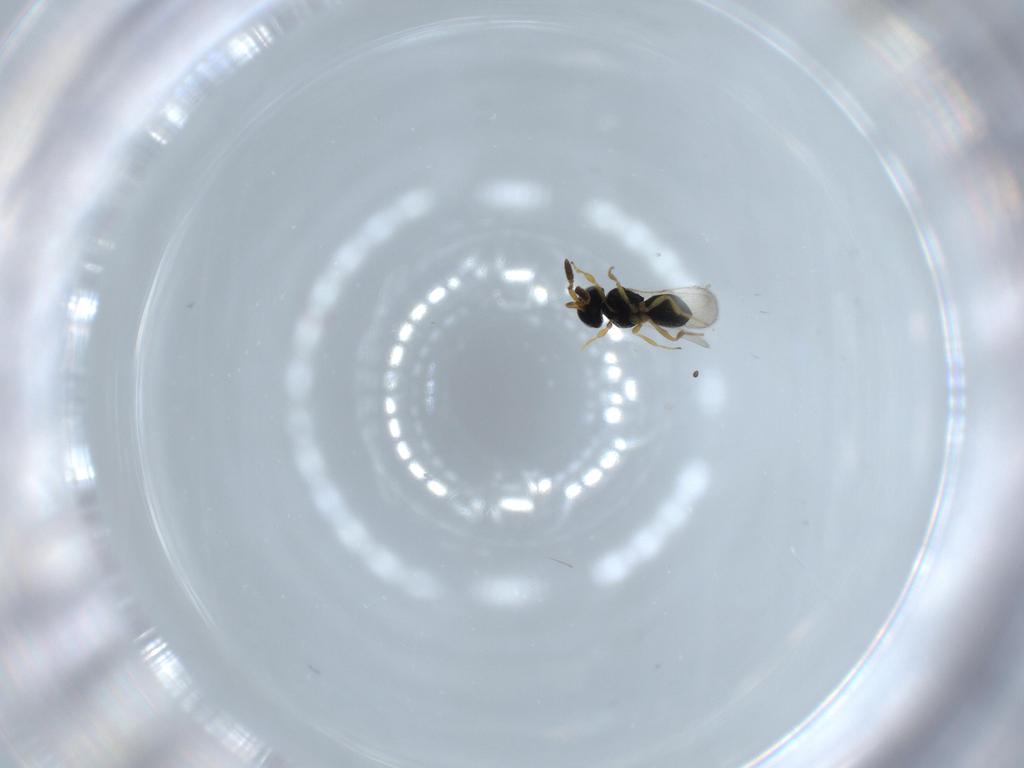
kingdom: Animalia
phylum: Arthropoda
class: Insecta
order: Hymenoptera
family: Scelionidae
